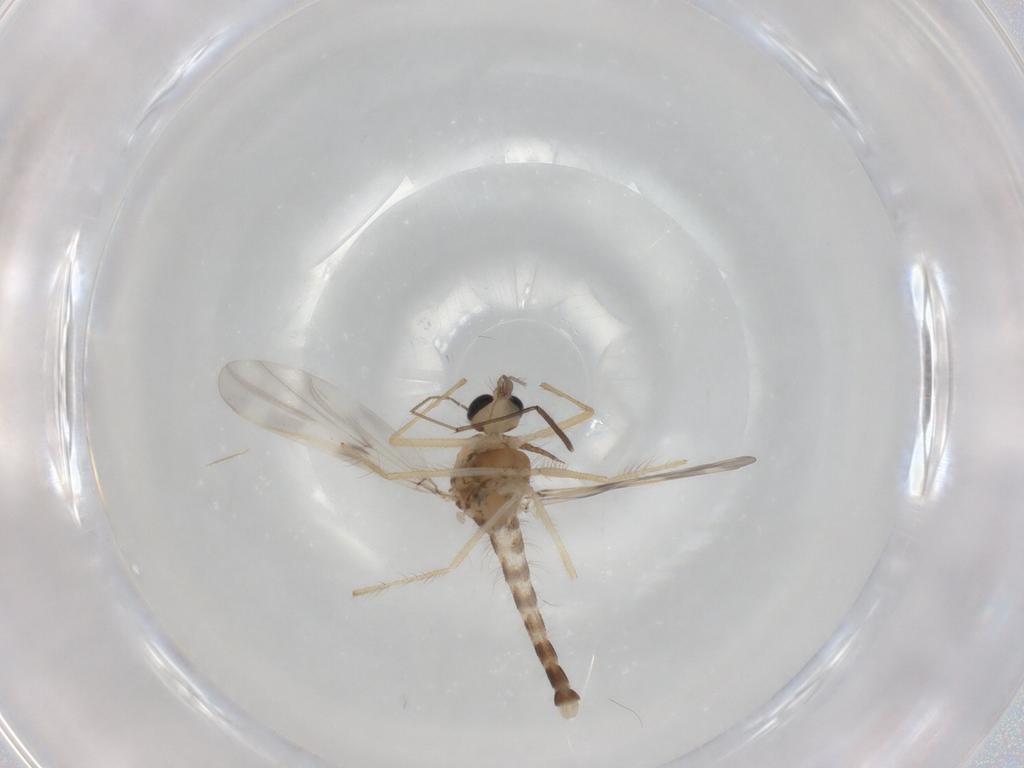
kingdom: Animalia
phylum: Arthropoda
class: Insecta
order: Diptera
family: Chironomidae
